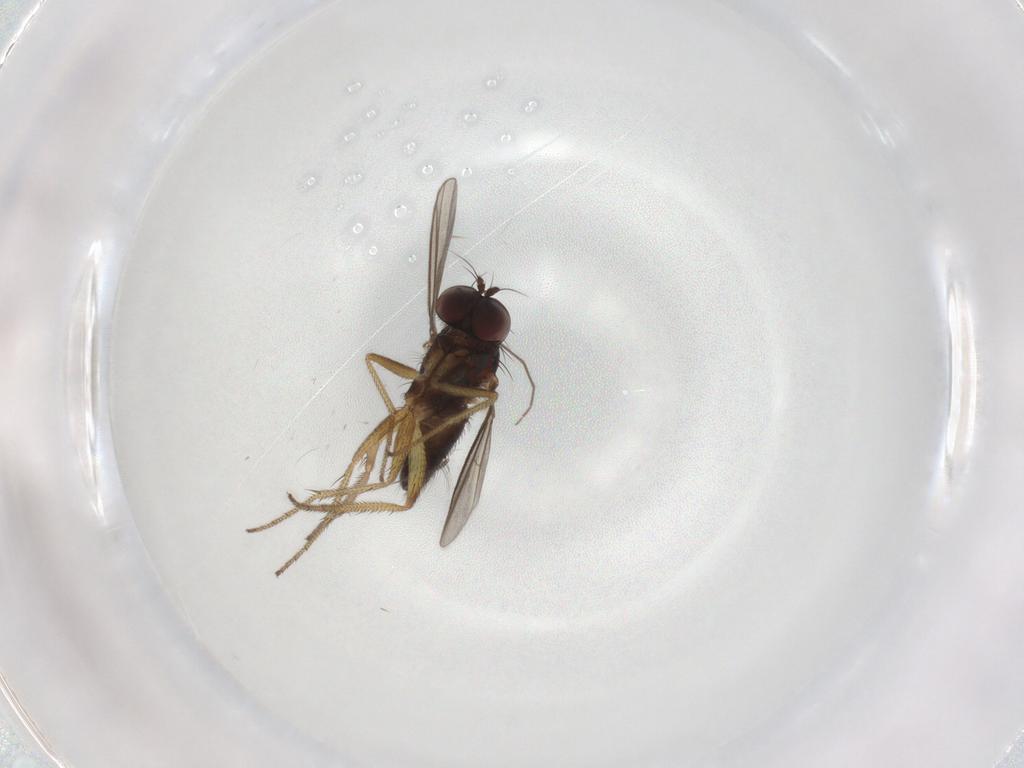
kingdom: Animalia
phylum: Arthropoda
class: Insecta
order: Diptera
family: Chironomidae
